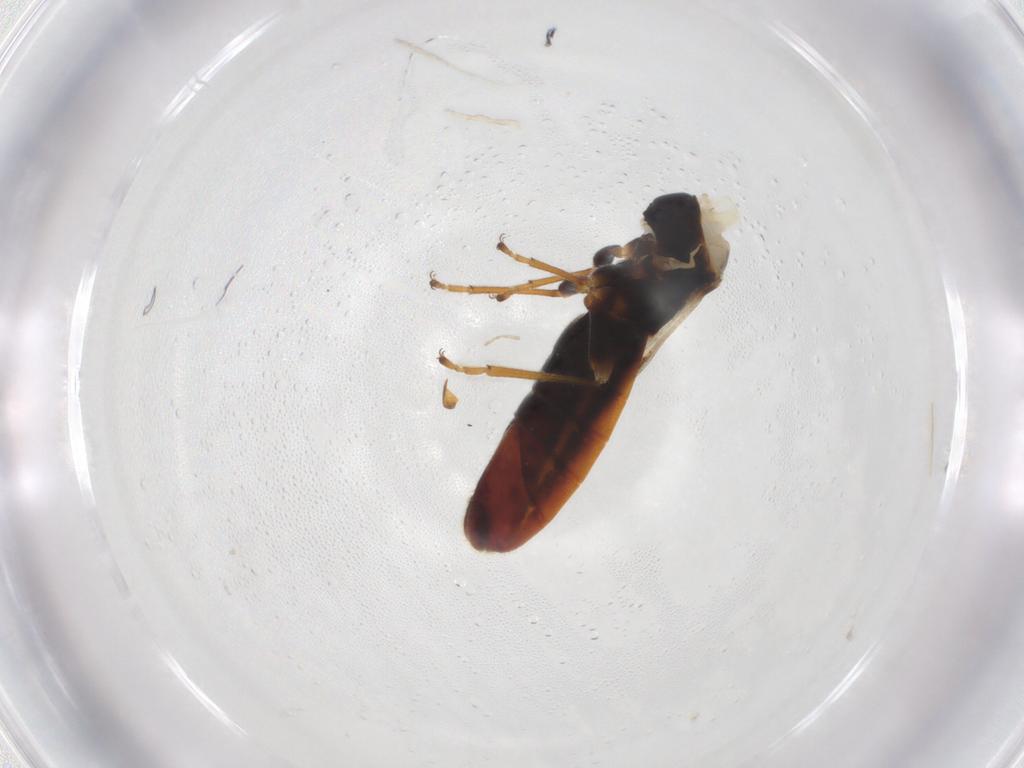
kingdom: Animalia
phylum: Arthropoda
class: Insecta
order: Hemiptera
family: Blissidae
